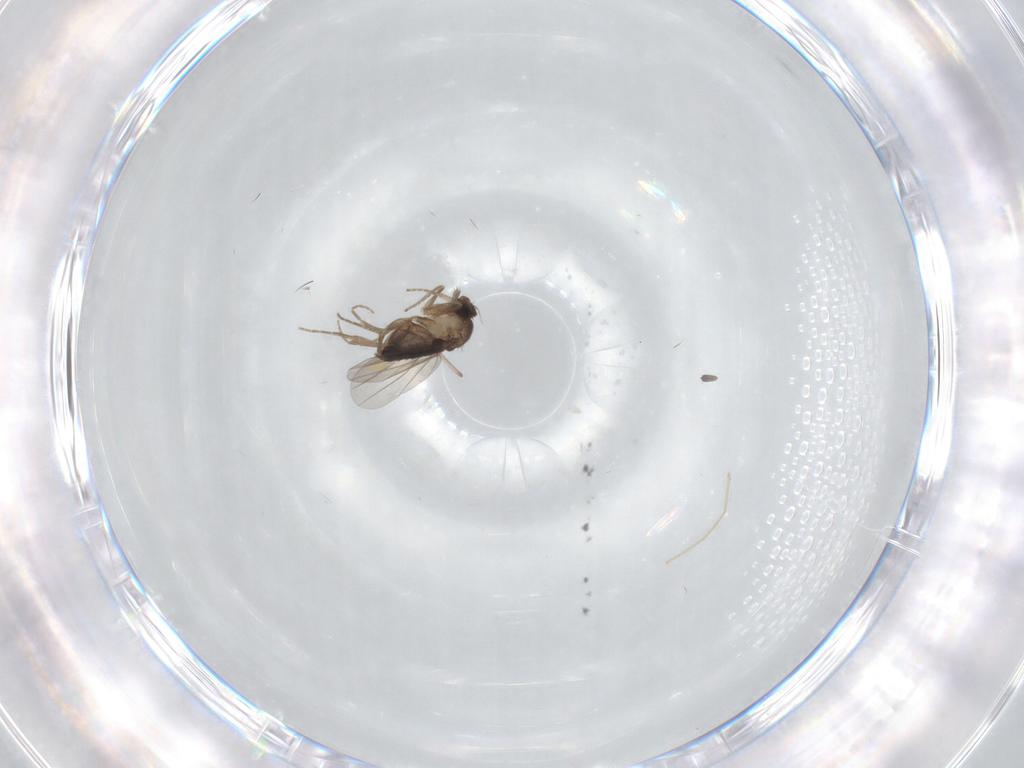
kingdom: Animalia
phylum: Arthropoda
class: Insecta
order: Diptera
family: Phoridae
